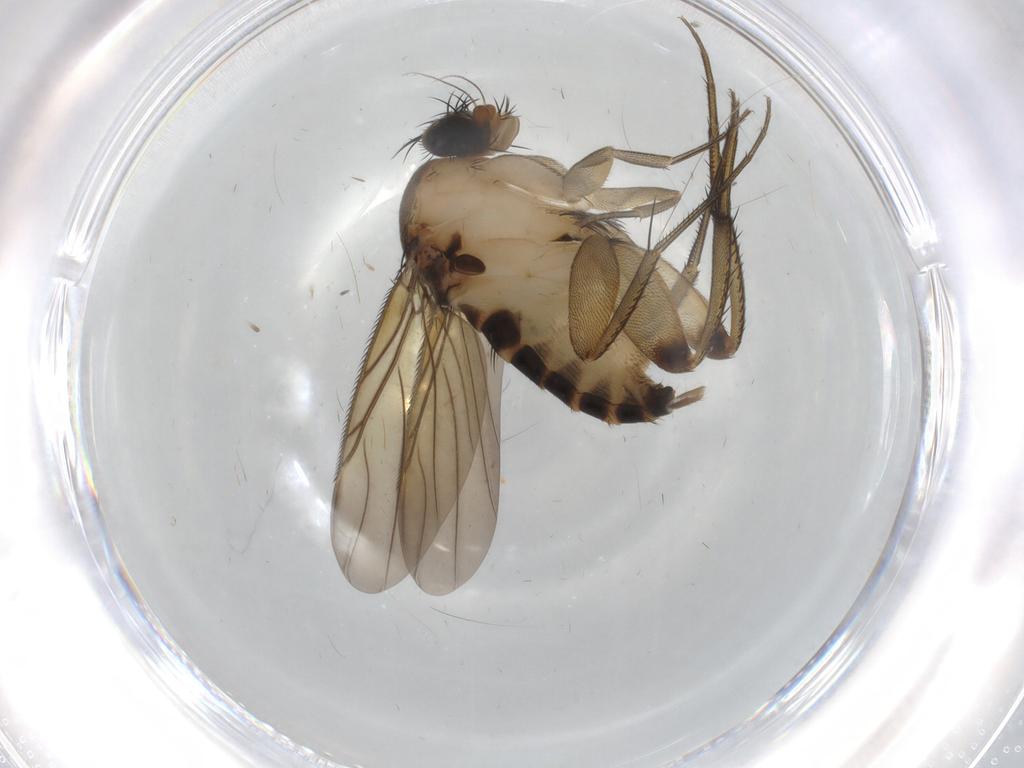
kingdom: Animalia
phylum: Arthropoda
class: Insecta
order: Diptera
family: Phoridae
